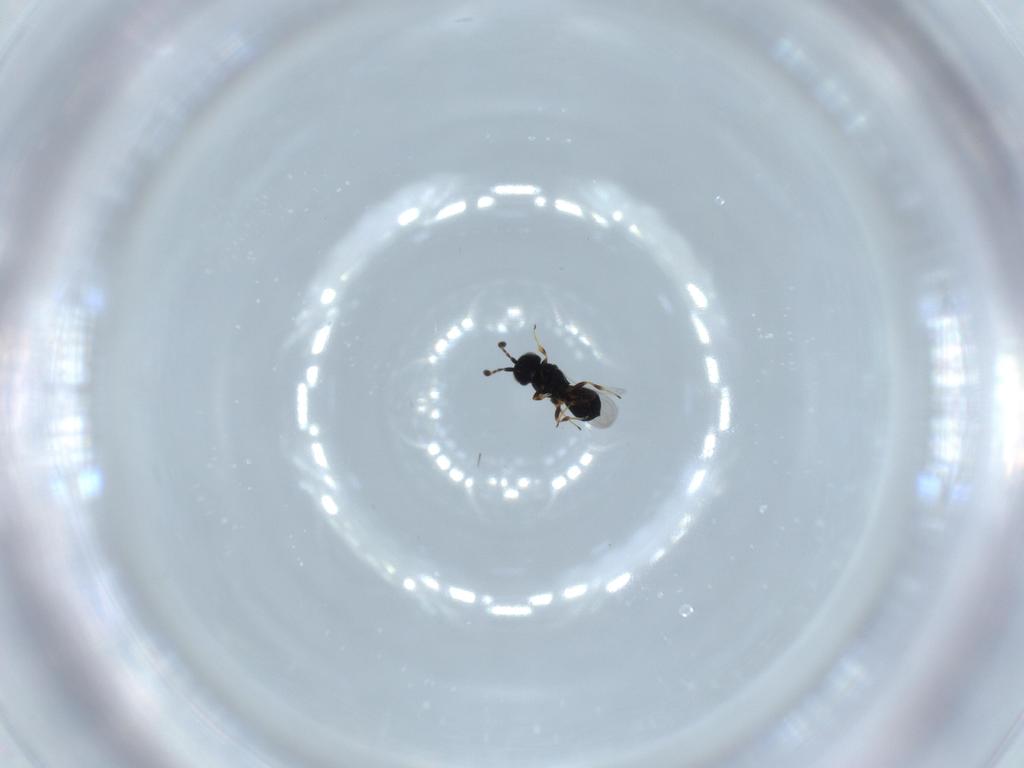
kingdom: Animalia
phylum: Arthropoda
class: Insecta
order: Hymenoptera
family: Scelionidae
